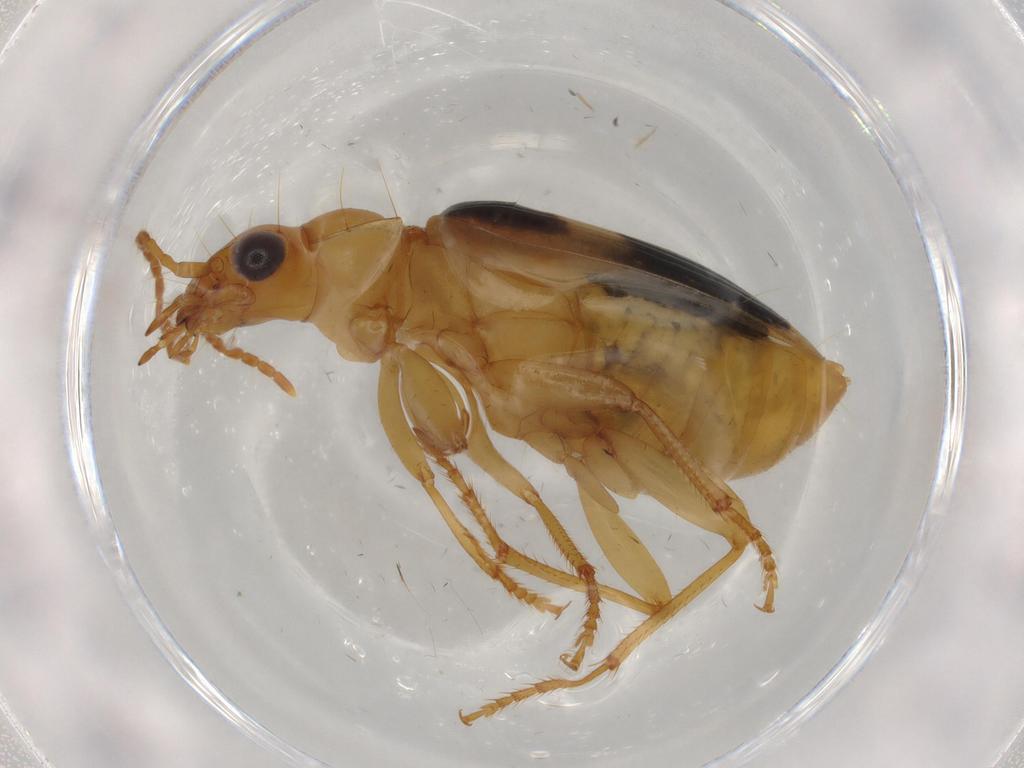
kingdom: Animalia
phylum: Arthropoda
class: Insecta
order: Coleoptera
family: Carabidae
